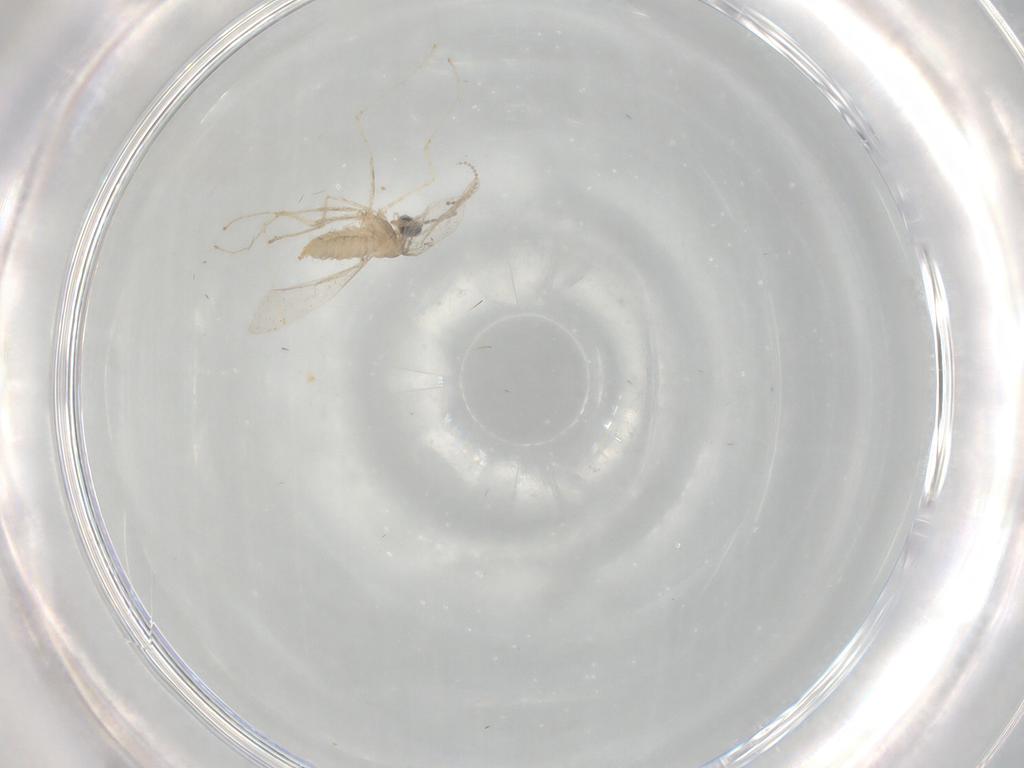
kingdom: Animalia
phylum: Arthropoda
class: Insecta
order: Diptera
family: Cecidomyiidae
